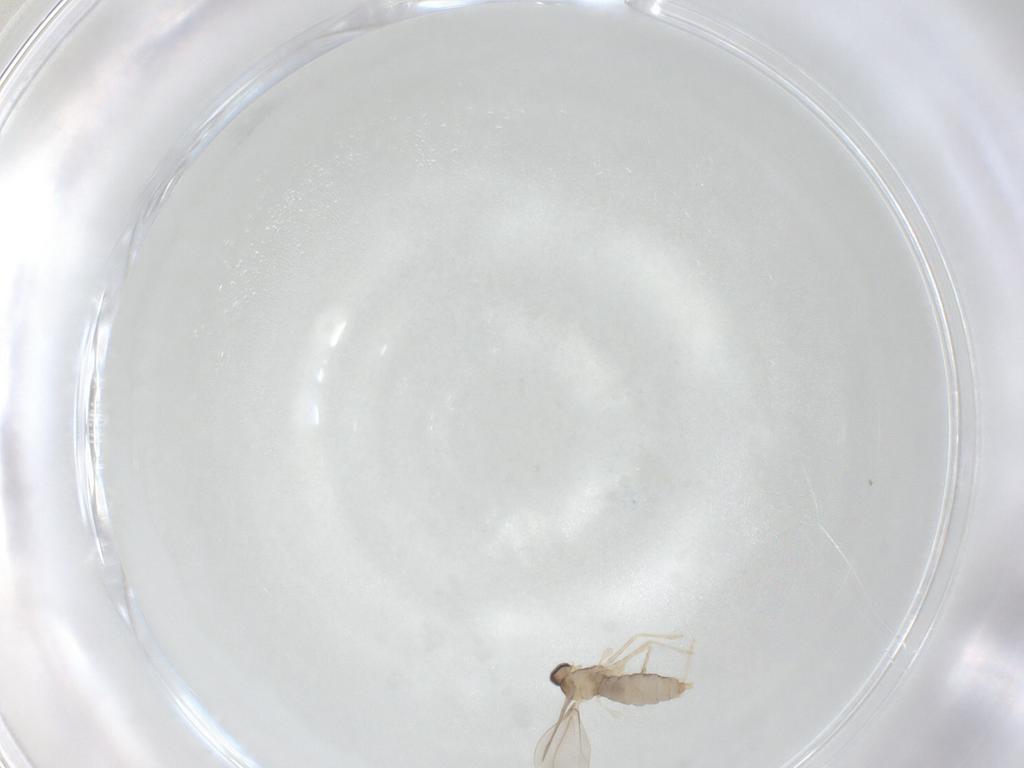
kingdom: Animalia
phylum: Arthropoda
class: Insecta
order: Diptera
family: Cecidomyiidae
